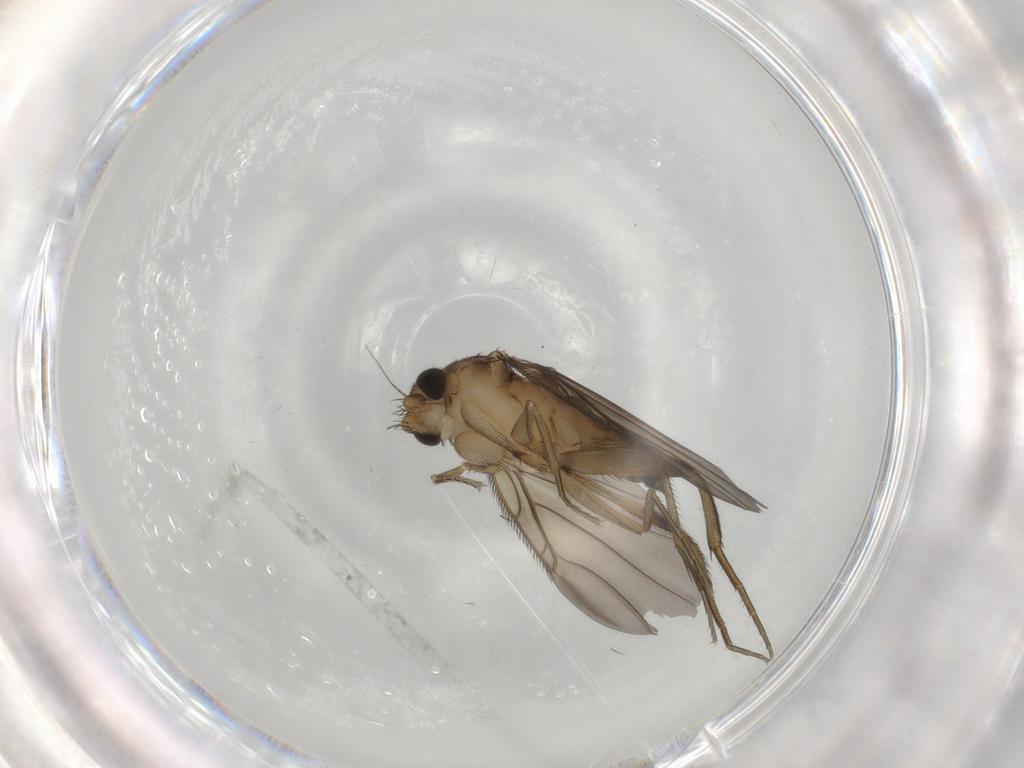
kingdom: Animalia
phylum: Arthropoda
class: Insecta
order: Diptera
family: Phoridae
